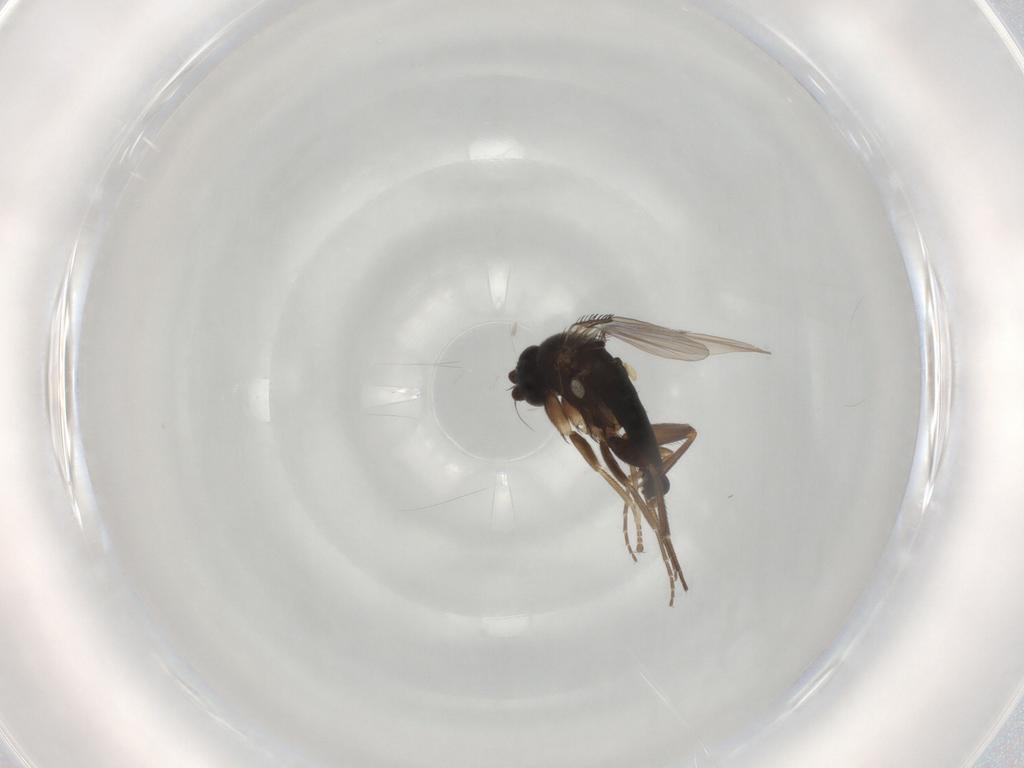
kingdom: Animalia
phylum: Arthropoda
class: Insecta
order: Diptera
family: Phoridae
